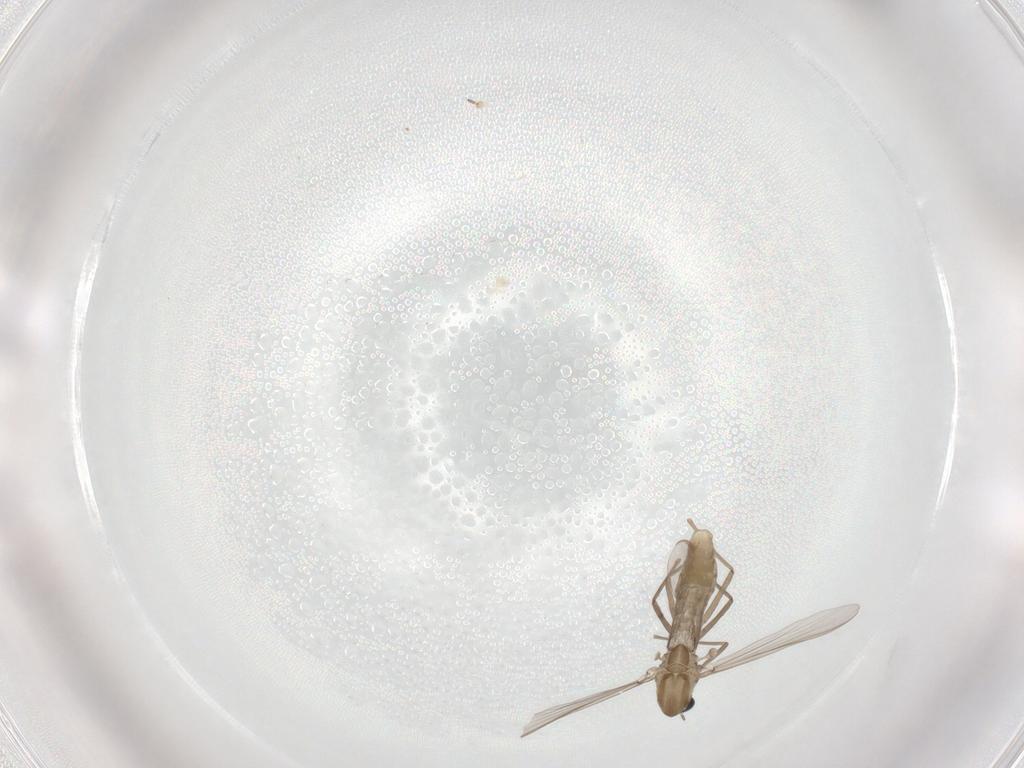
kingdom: Animalia
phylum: Arthropoda
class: Insecta
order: Diptera
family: Chironomidae
